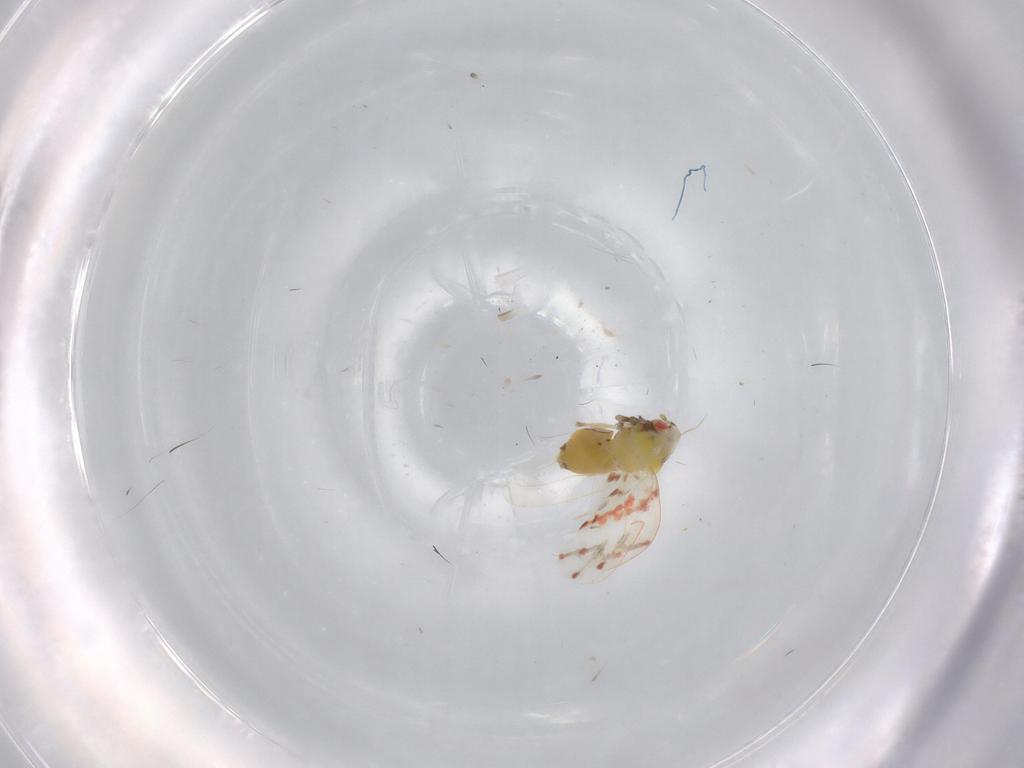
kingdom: Animalia
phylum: Arthropoda
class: Insecta
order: Hemiptera
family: Aleyrodidae
